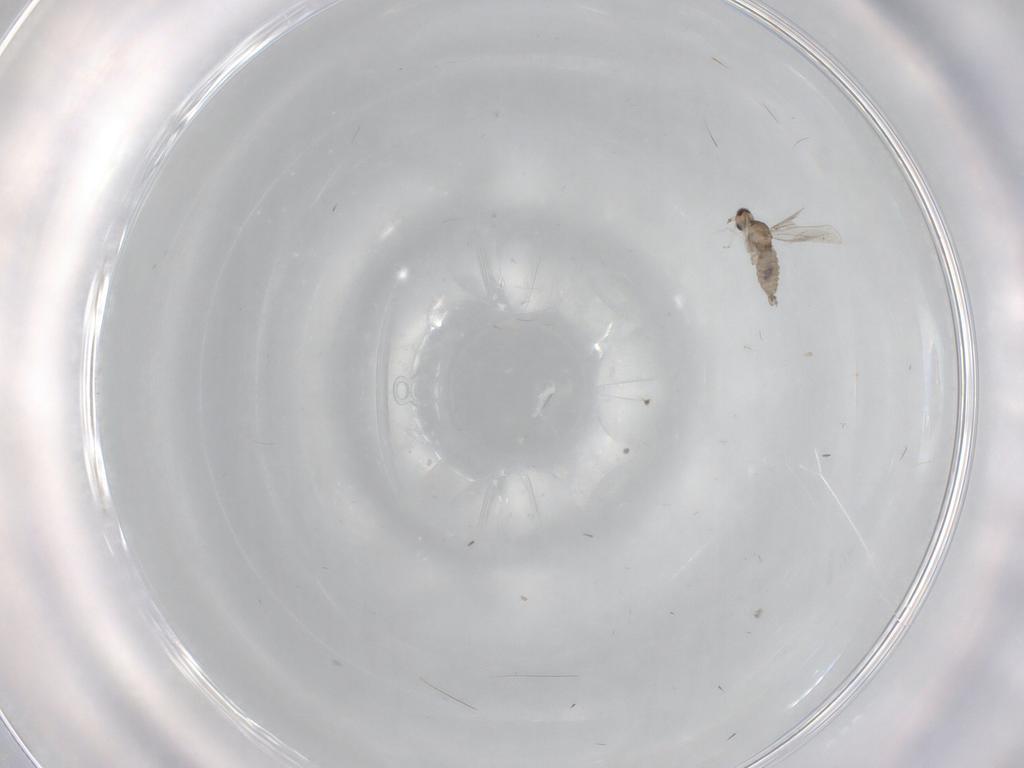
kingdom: Animalia
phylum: Arthropoda
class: Insecta
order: Diptera
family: Cecidomyiidae
